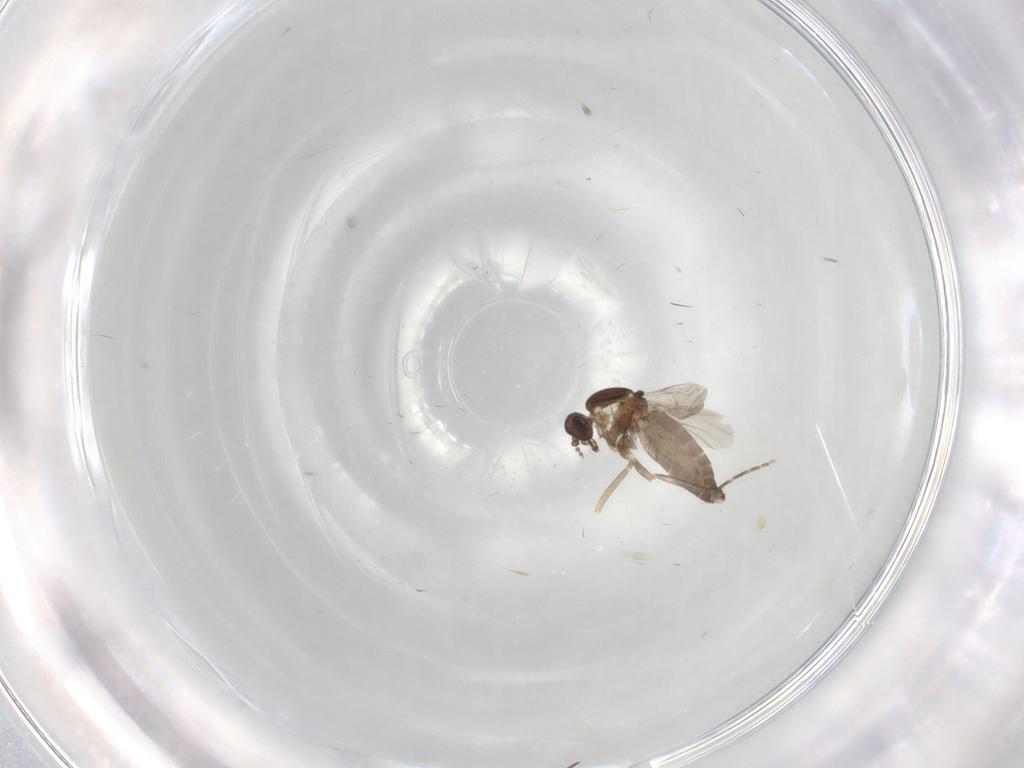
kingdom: Animalia
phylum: Arthropoda
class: Insecta
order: Diptera
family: Ceratopogonidae
